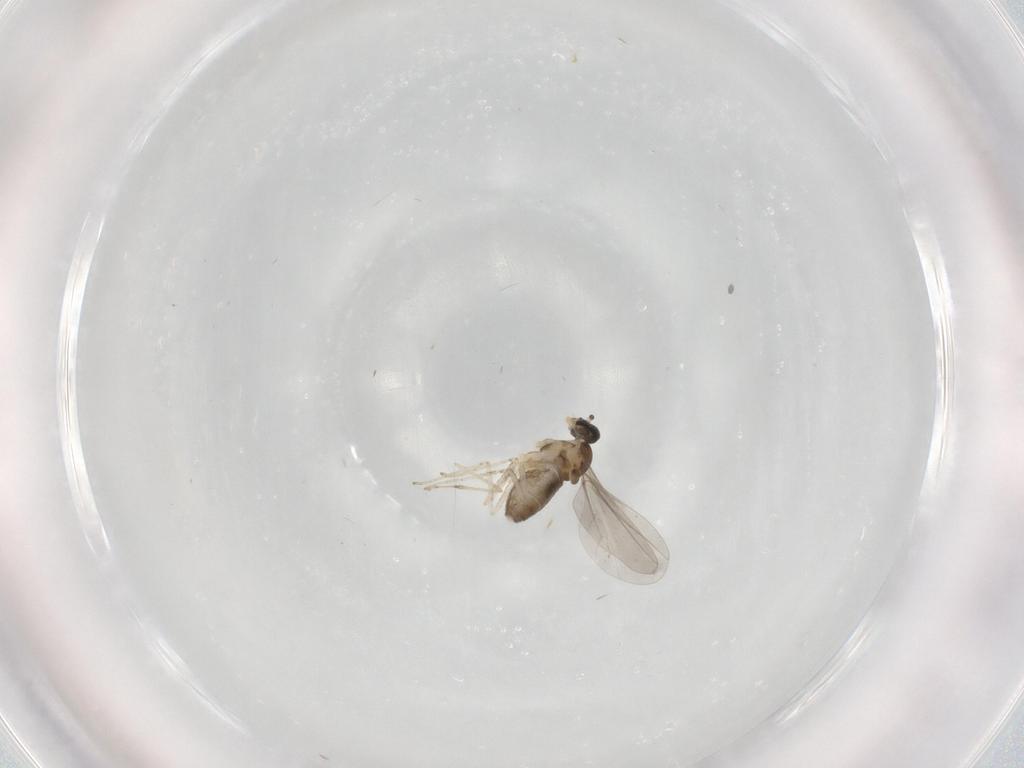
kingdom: Animalia
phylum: Arthropoda
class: Insecta
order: Diptera
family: Cecidomyiidae
